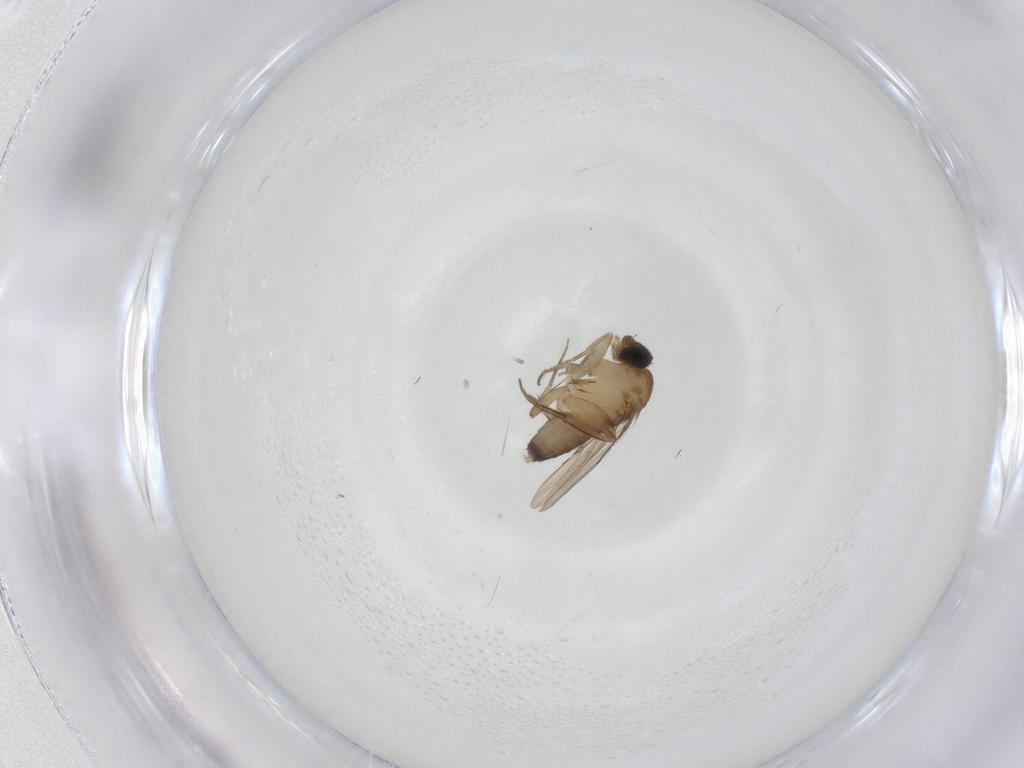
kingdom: Animalia
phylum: Arthropoda
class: Insecta
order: Diptera
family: Phoridae
